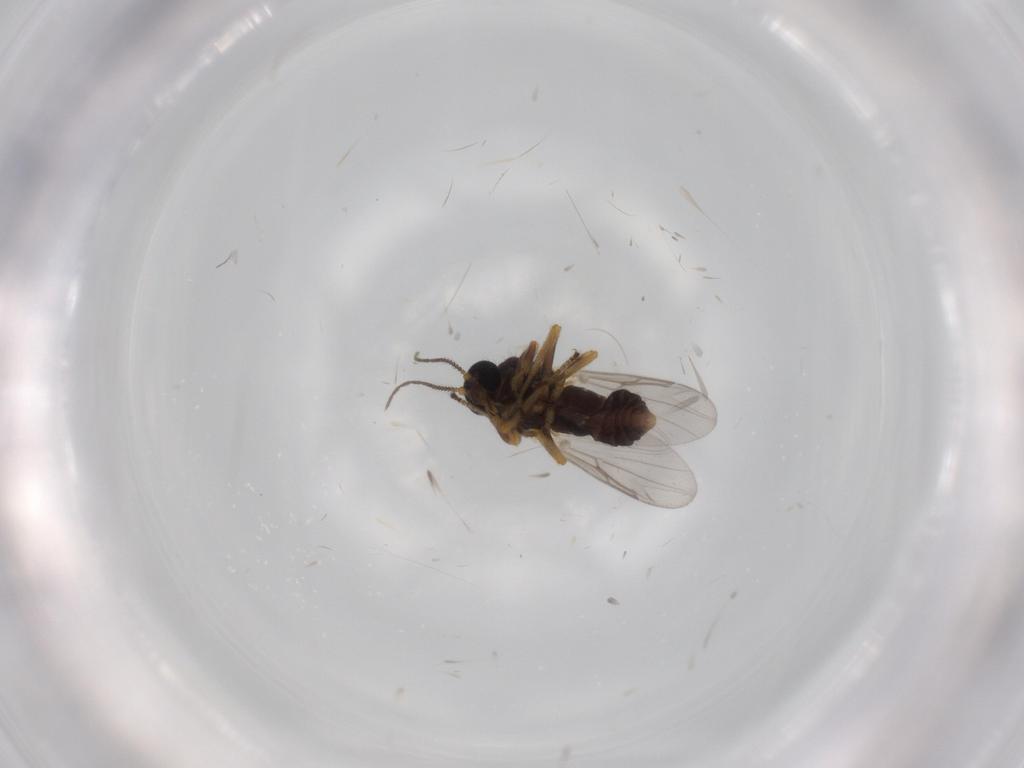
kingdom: Animalia
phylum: Arthropoda
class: Insecta
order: Diptera
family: Ceratopogonidae
